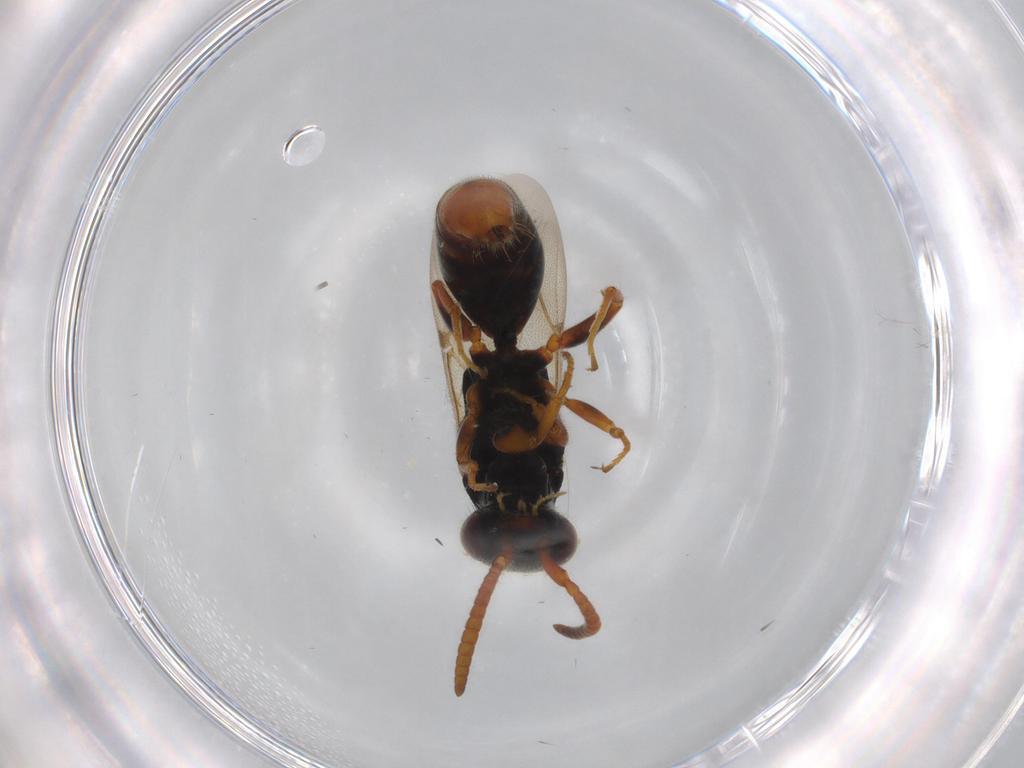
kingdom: Animalia
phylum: Arthropoda
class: Insecta
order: Hymenoptera
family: Bethylidae
